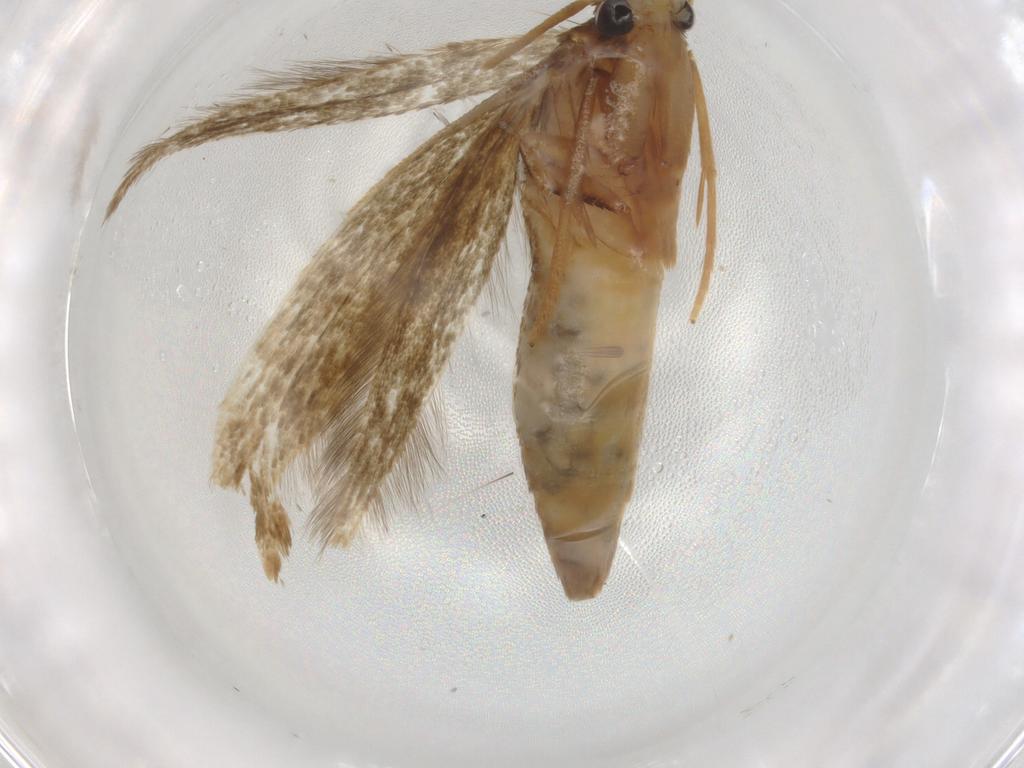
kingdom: Animalia
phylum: Arthropoda
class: Insecta
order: Lepidoptera
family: Tineidae
